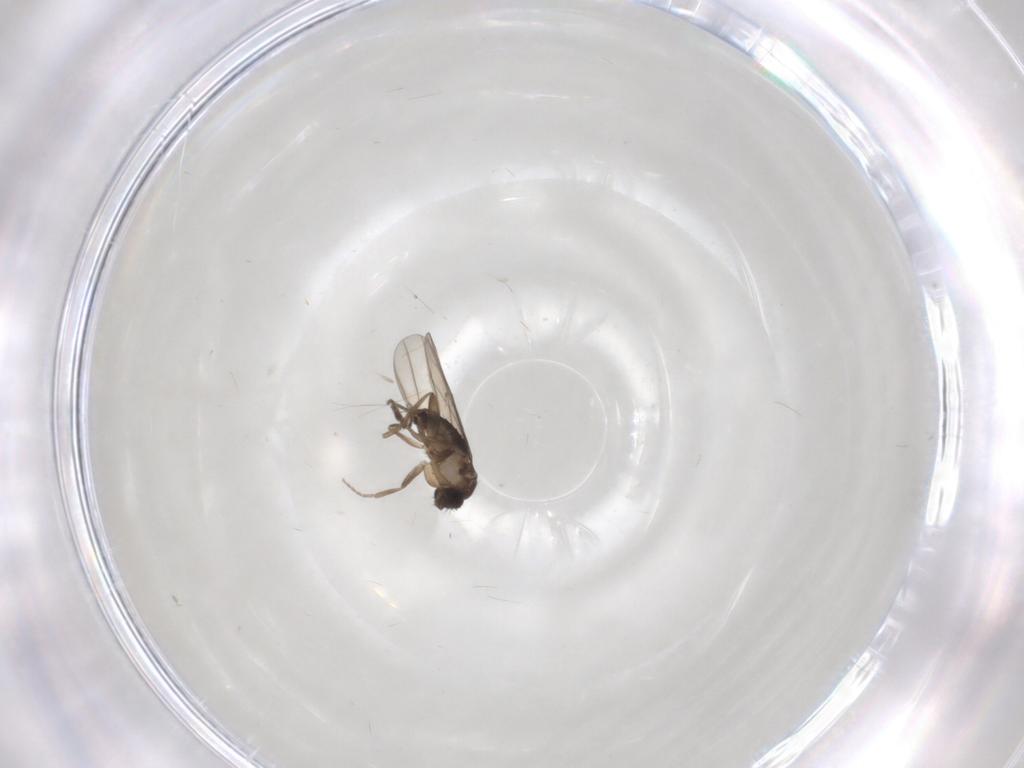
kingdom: Animalia
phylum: Arthropoda
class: Insecta
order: Diptera
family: Phoridae
